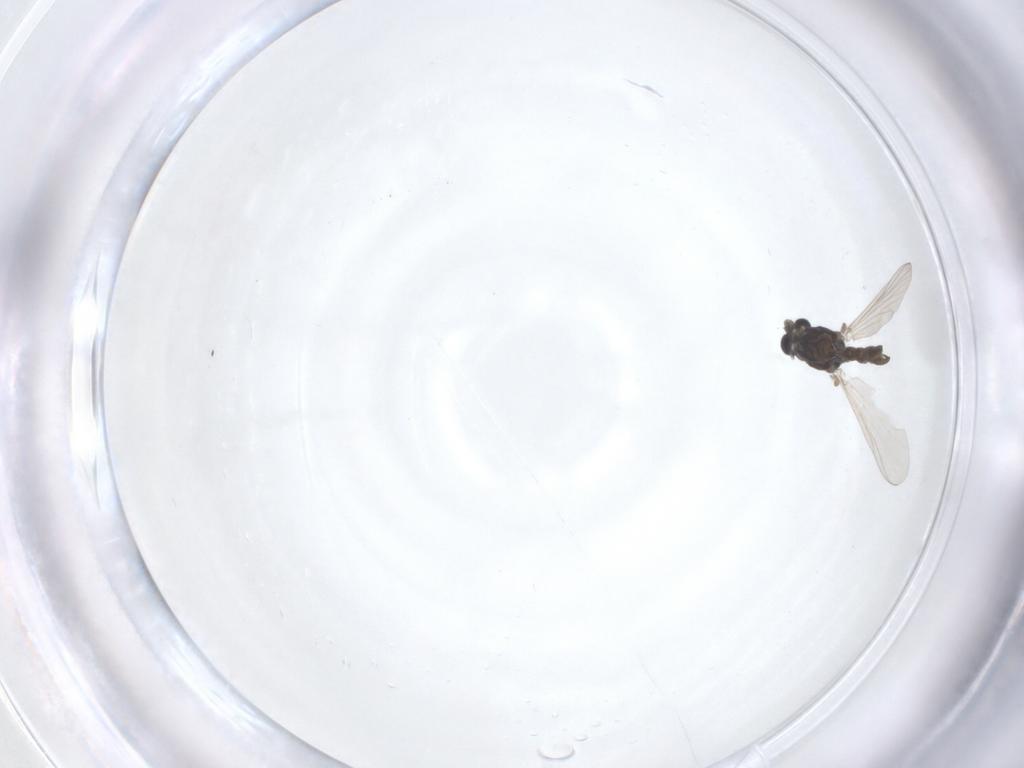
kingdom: Animalia
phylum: Arthropoda
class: Insecta
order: Diptera
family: Chironomidae
